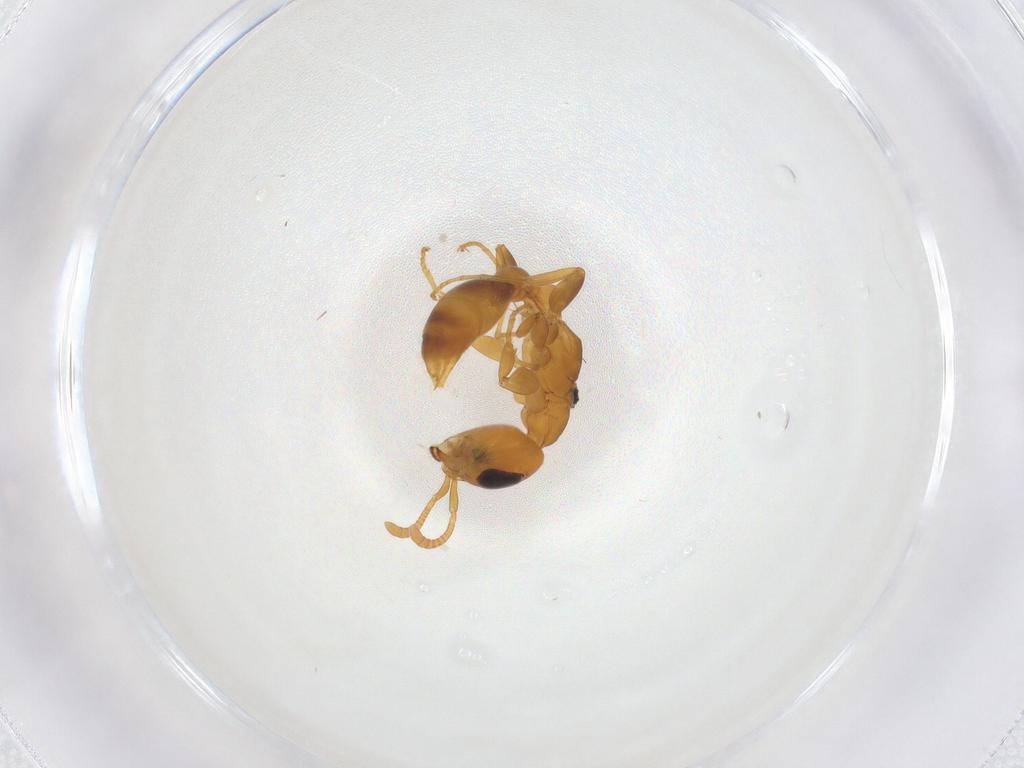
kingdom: Animalia
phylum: Arthropoda
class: Insecta
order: Hymenoptera
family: Formicidae
